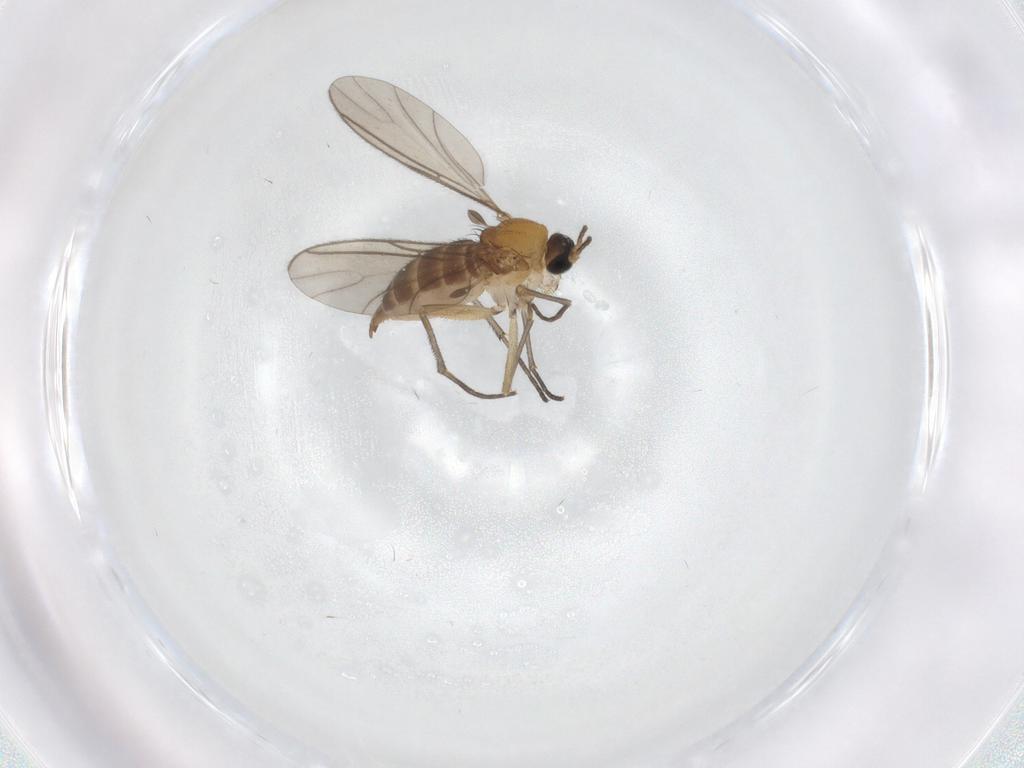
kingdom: Animalia
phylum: Arthropoda
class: Insecta
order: Diptera
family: Sciaridae
